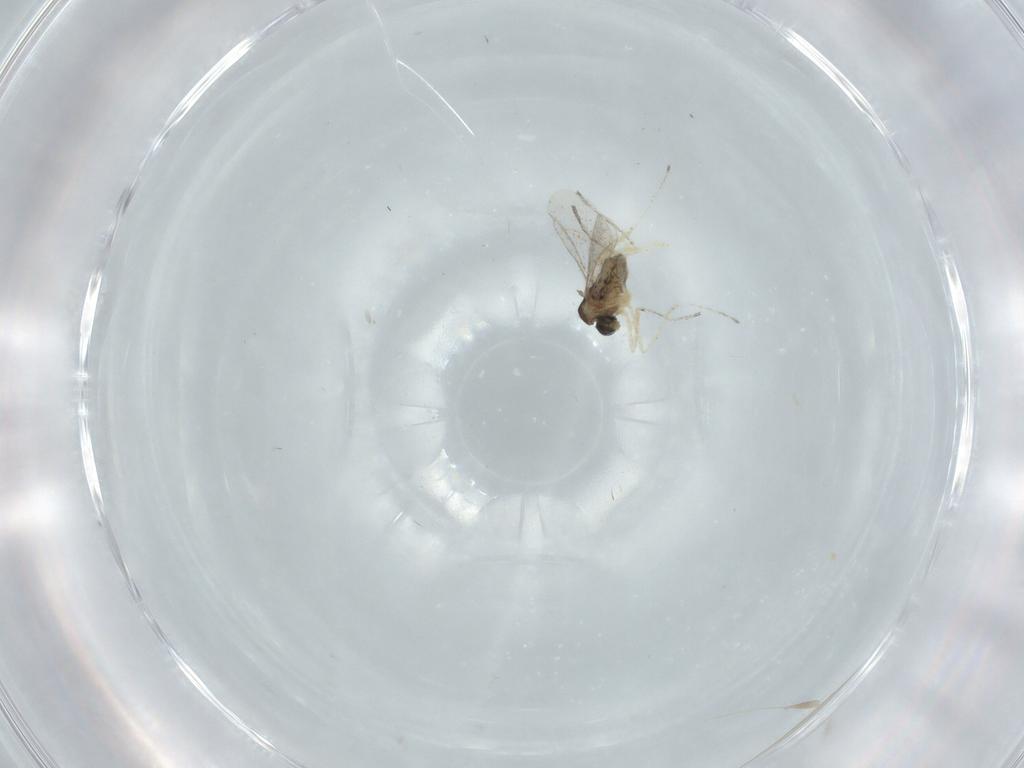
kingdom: Animalia
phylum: Arthropoda
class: Insecta
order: Diptera
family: Muscidae
